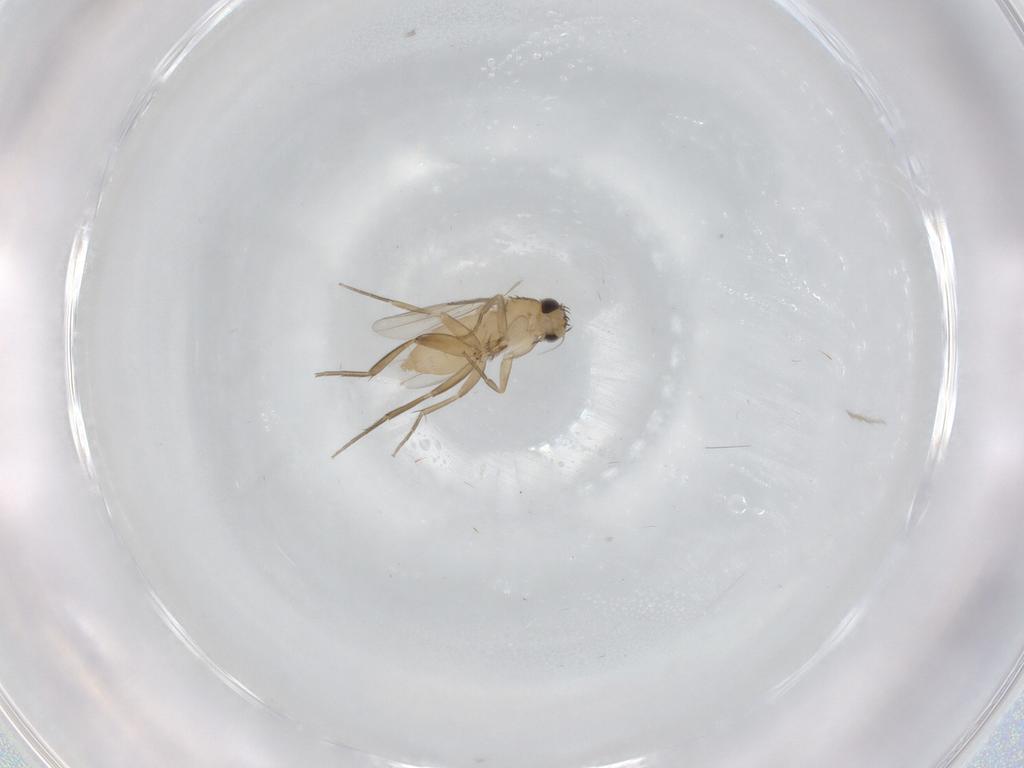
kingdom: Animalia
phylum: Arthropoda
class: Insecta
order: Diptera
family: Phoridae
